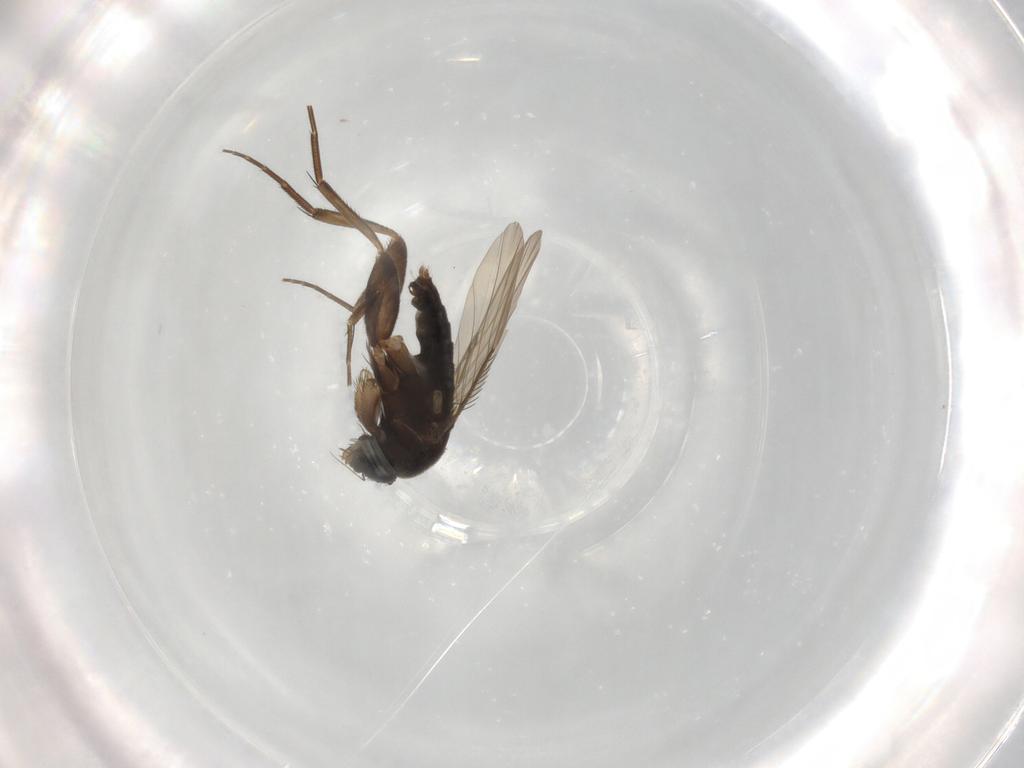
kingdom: Animalia
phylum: Arthropoda
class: Insecta
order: Diptera
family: Phoridae
